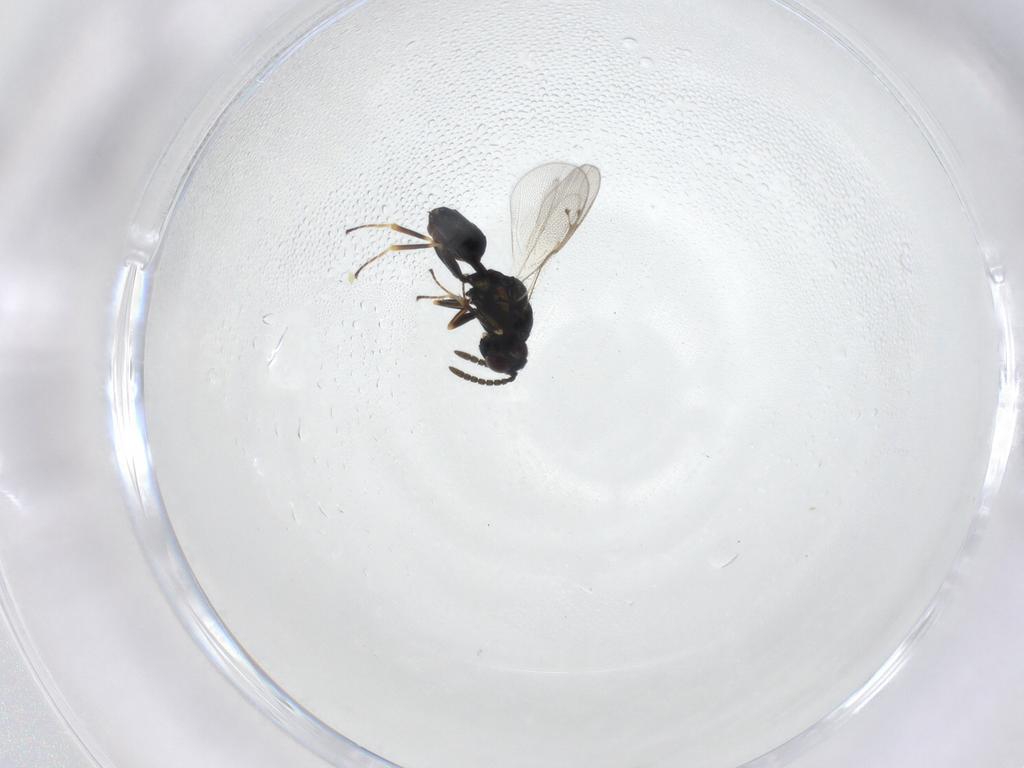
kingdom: Animalia
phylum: Arthropoda
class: Insecta
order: Hymenoptera
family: Pteromalidae
